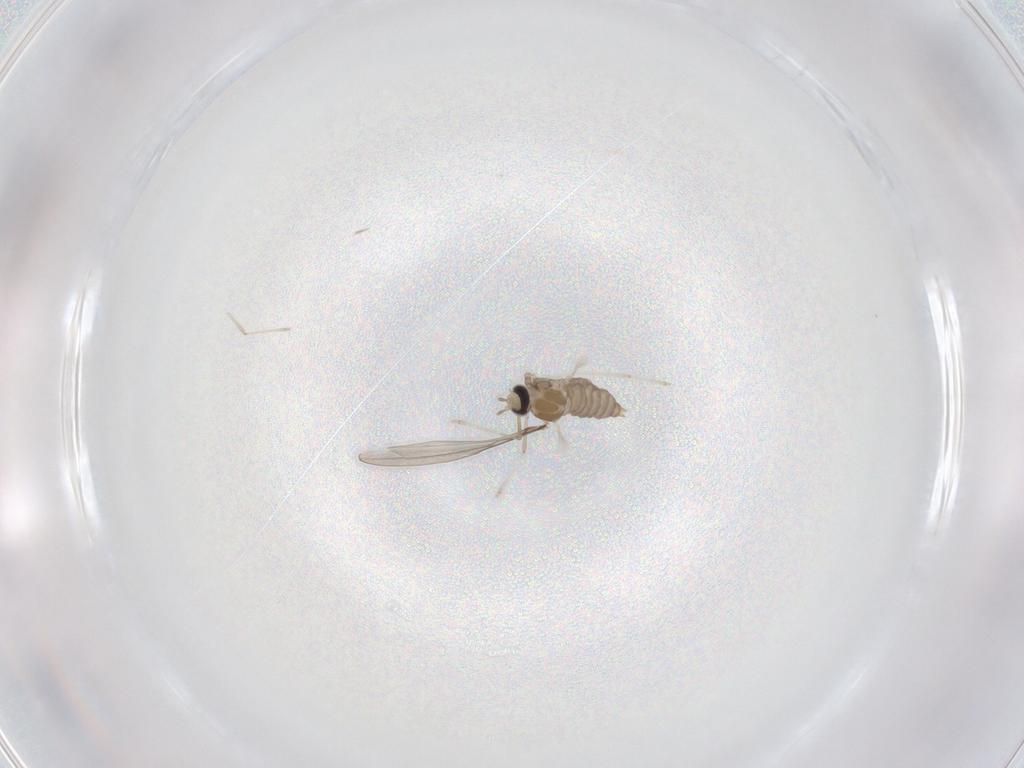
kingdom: Animalia
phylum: Arthropoda
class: Insecta
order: Diptera
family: Cecidomyiidae
